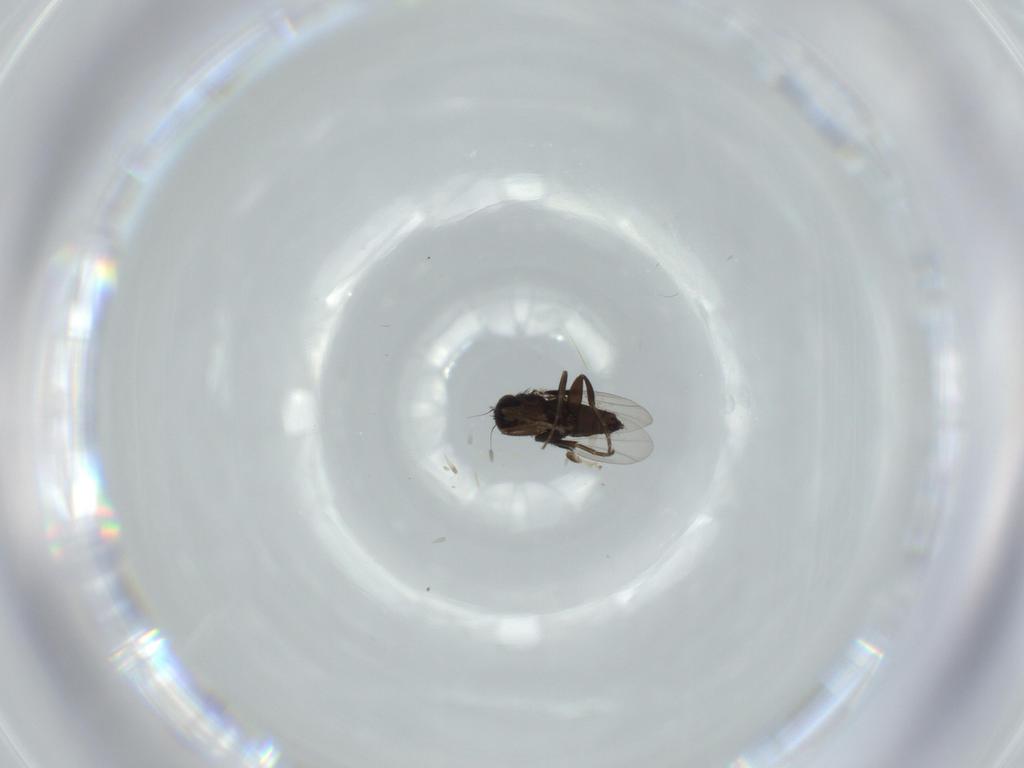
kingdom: Animalia
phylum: Arthropoda
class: Insecta
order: Diptera
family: Phoridae
